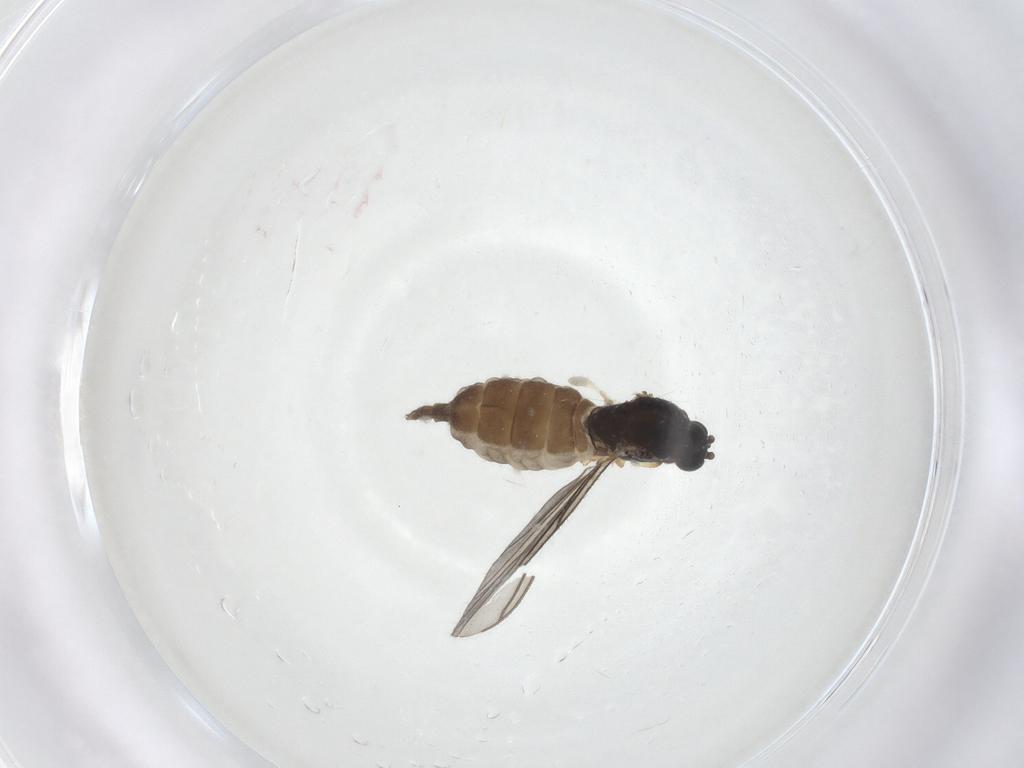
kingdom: Animalia
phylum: Arthropoda
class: Insecta
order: Diptera
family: Sciaridae
